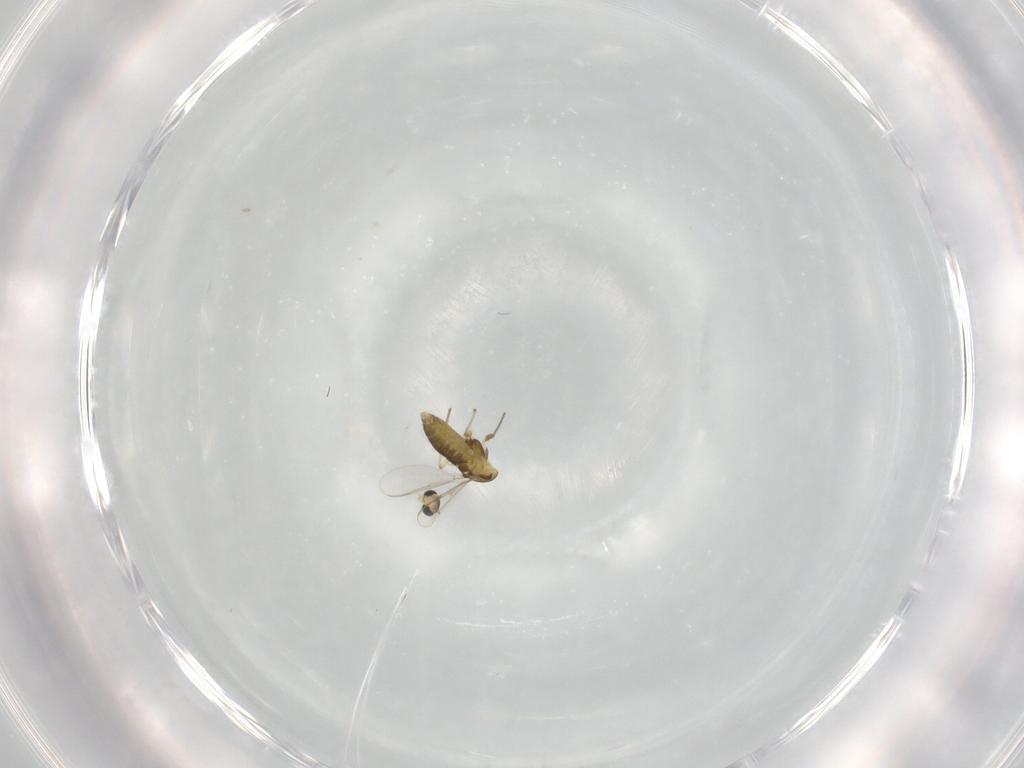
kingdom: Animalia
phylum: Arthropoda
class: Insecta
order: Diptera
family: Chironomidae
